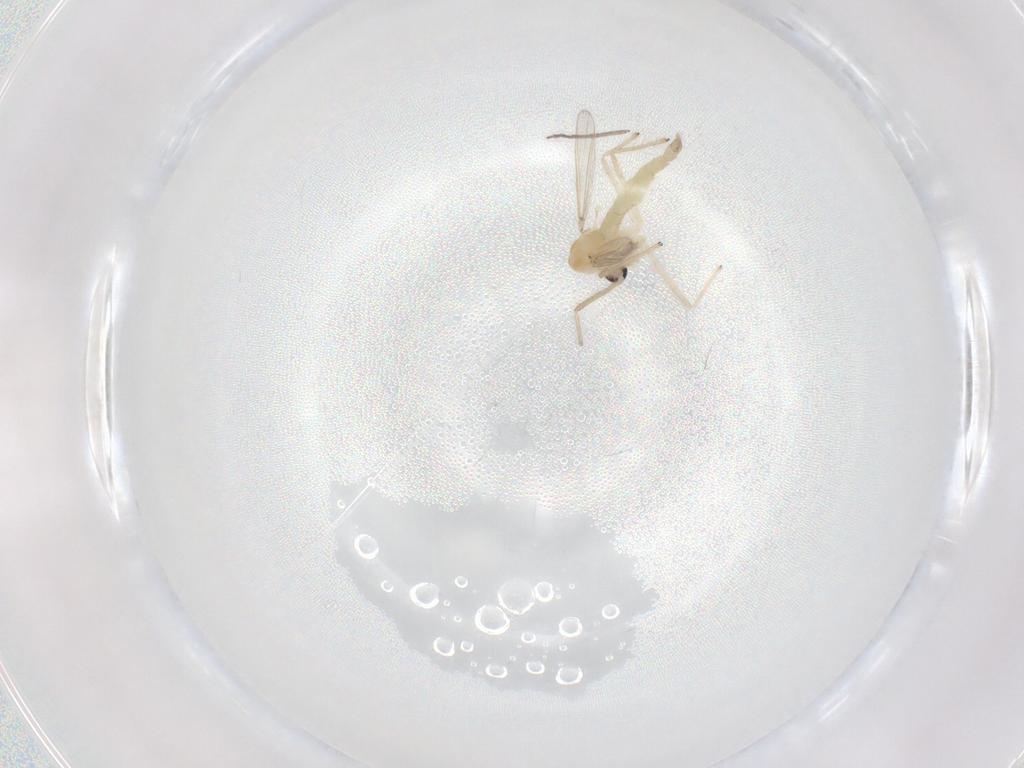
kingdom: Animalia
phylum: Arthropoda
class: Insecta
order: Diptera
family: Chironomidae
